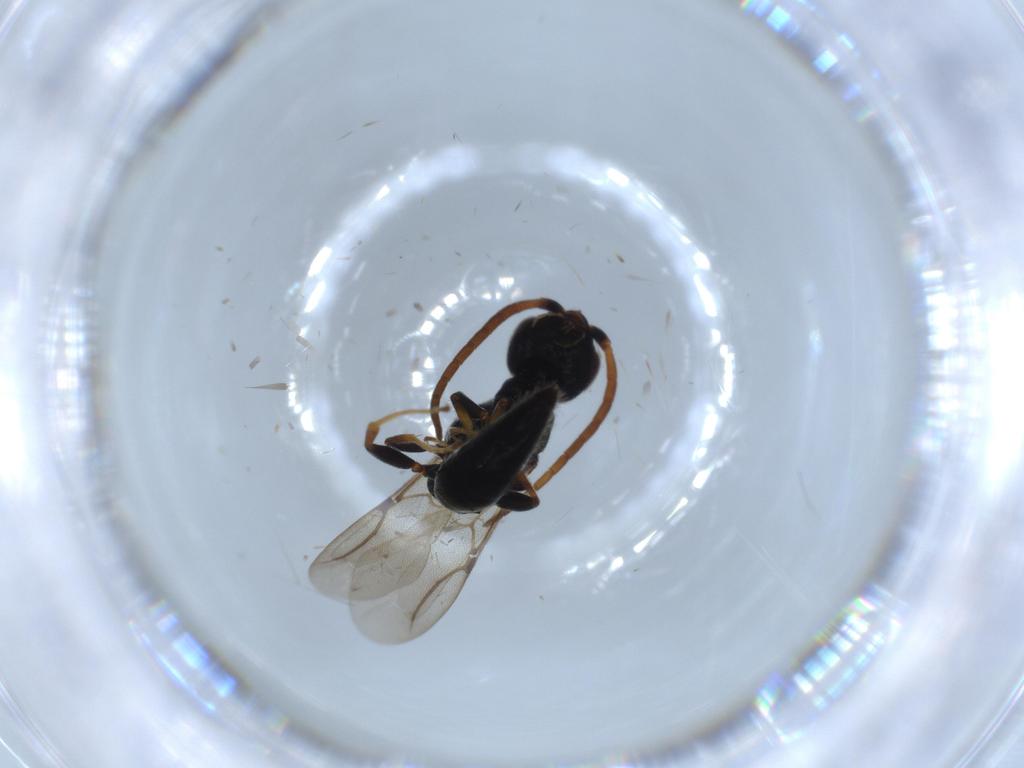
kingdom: Animalia
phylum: Arthropoda
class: Insecta
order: Hymenoptera
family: Bethylidae
